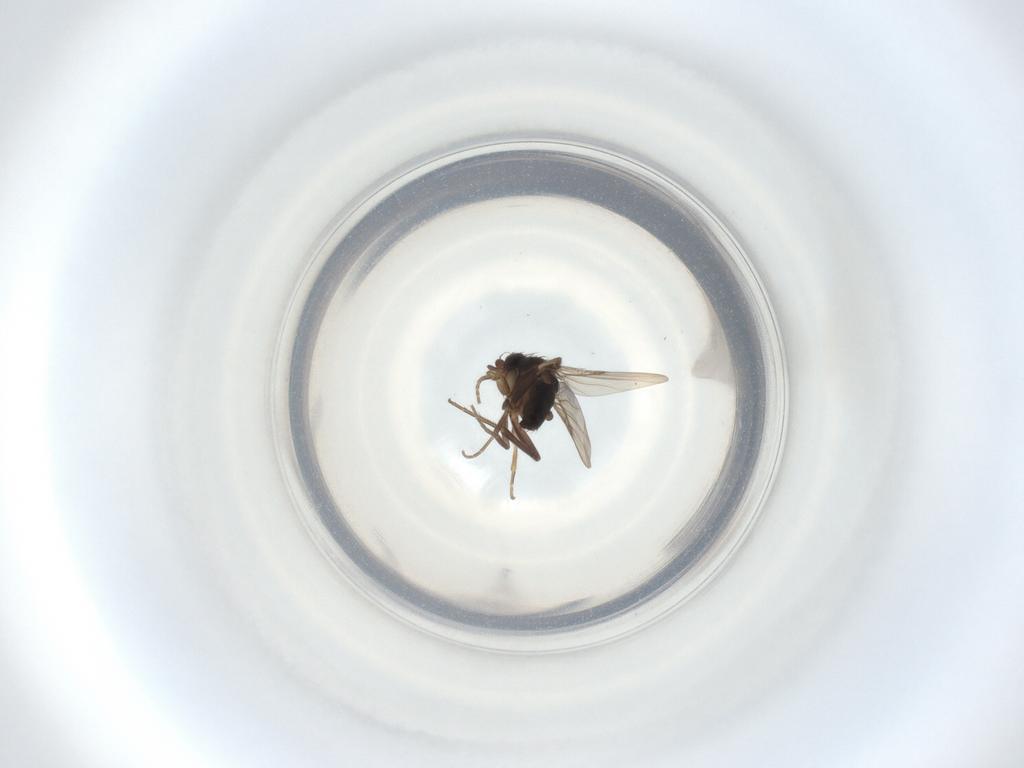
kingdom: Animalia
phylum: Arthropoda
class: Insecta
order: Diptera
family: Phoridae
